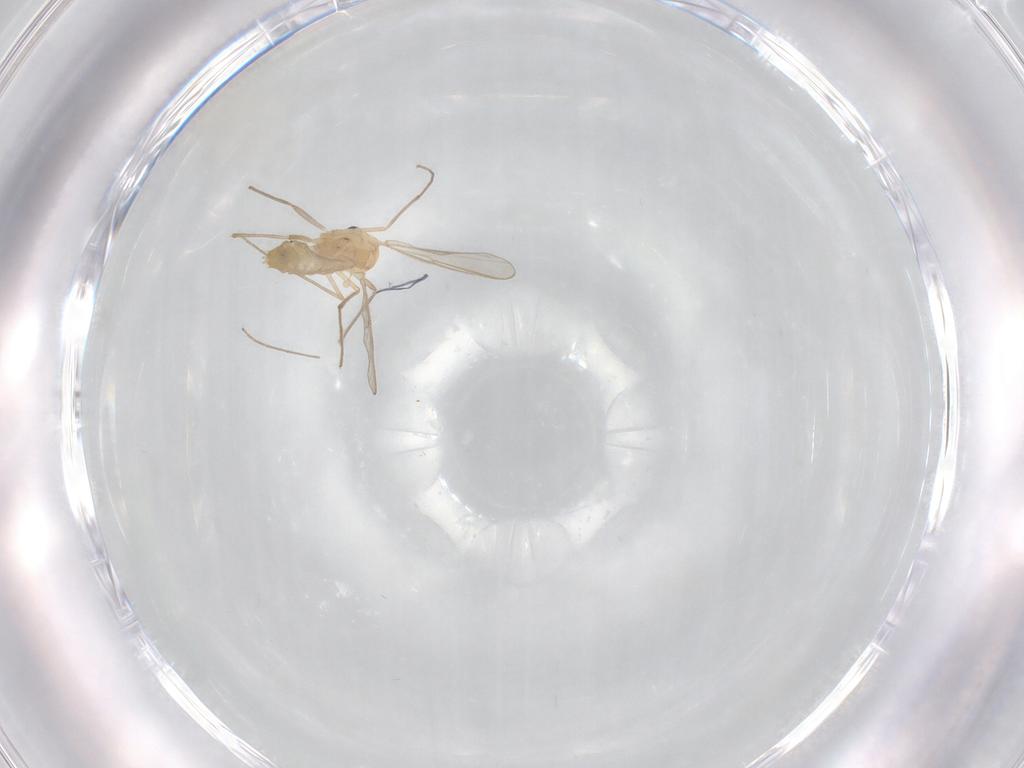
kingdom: Animalia
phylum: Arthropoda
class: Insecta
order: Diptera
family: Chironomidae
